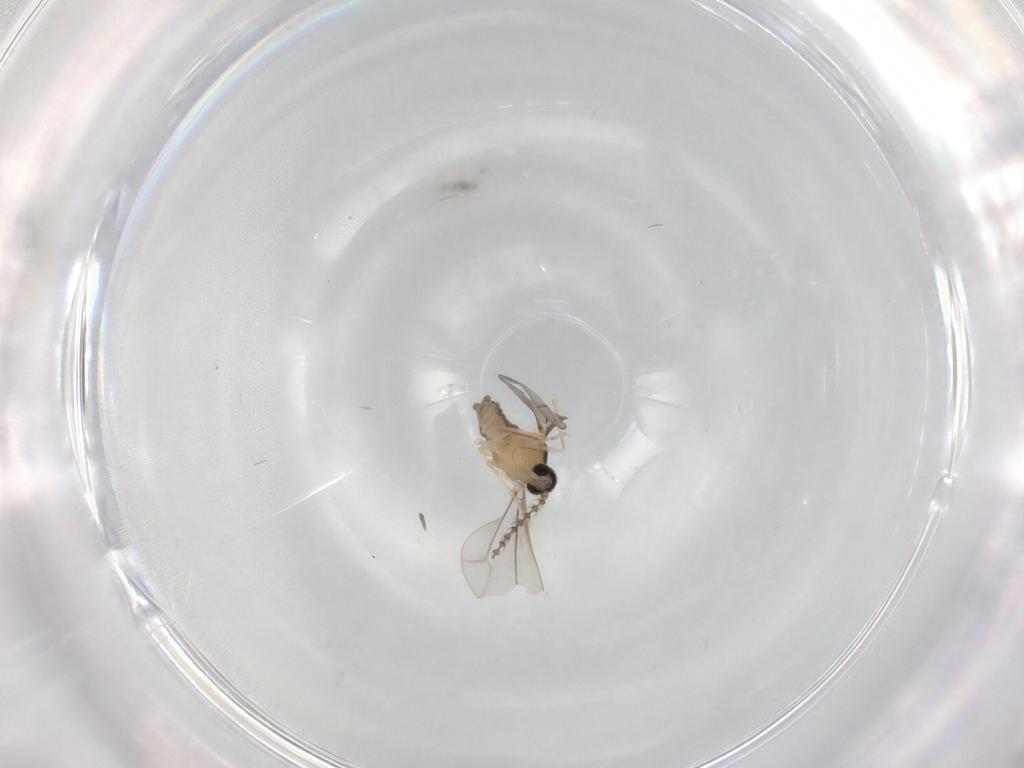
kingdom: Animalia
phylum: Arthropoda
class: Insecta
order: Diptera
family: Cecidomyiidae
